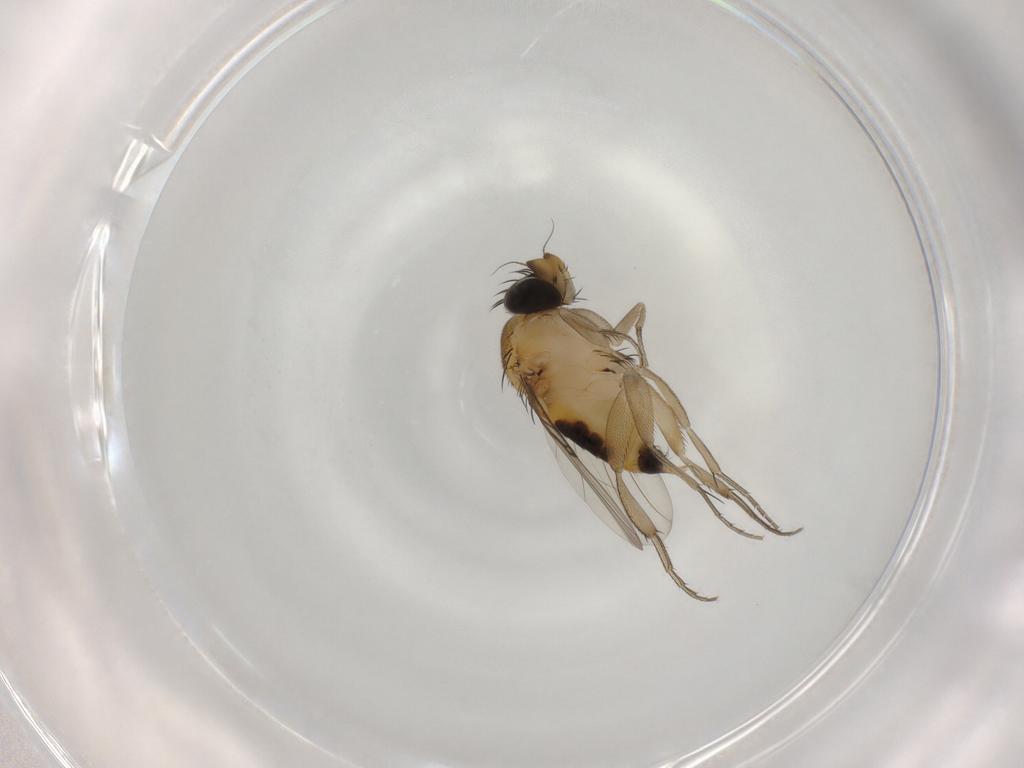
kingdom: Animalia
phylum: Arthropoda
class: Insecta
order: Diptera
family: Phoridae
